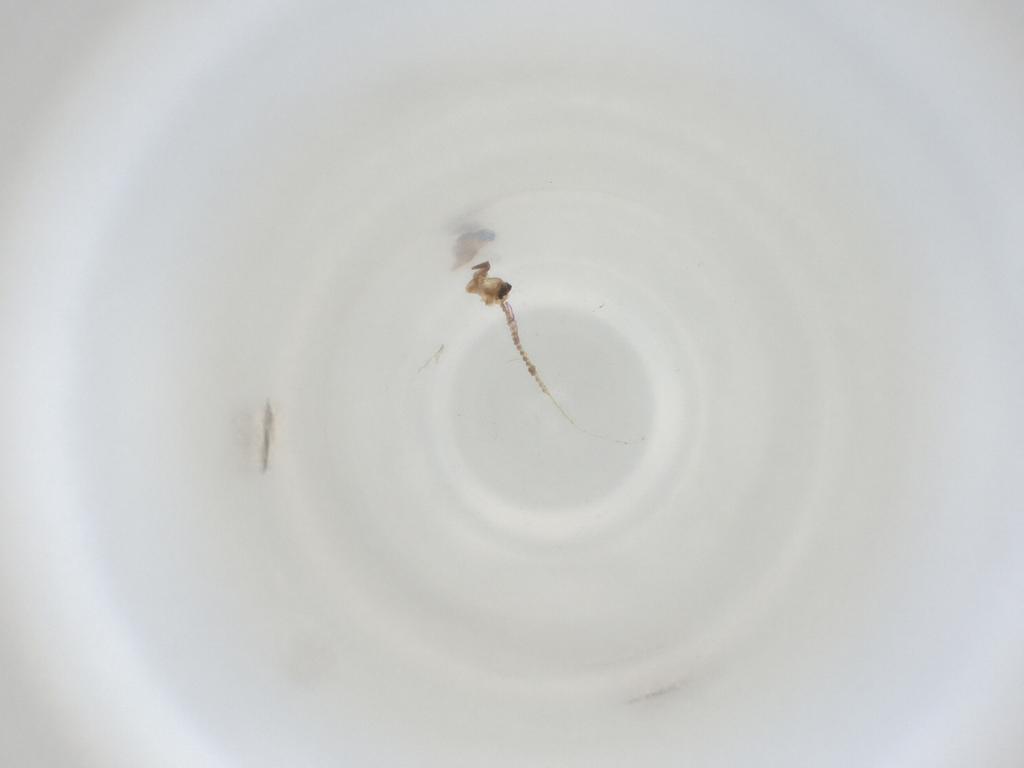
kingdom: Animalia
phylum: Arthropoda
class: Insecta
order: Diptera
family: Cecidomyiidae
